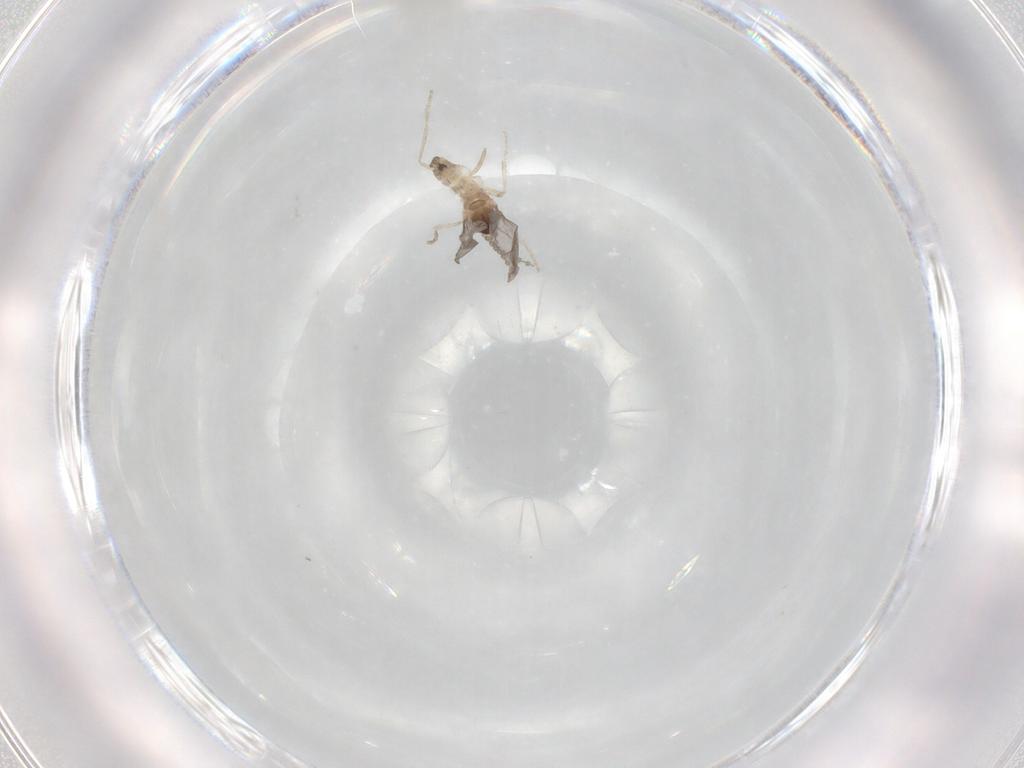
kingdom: Animalia
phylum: Arthropoda
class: Insecta
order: Diptera
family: Cecidomyiidae
